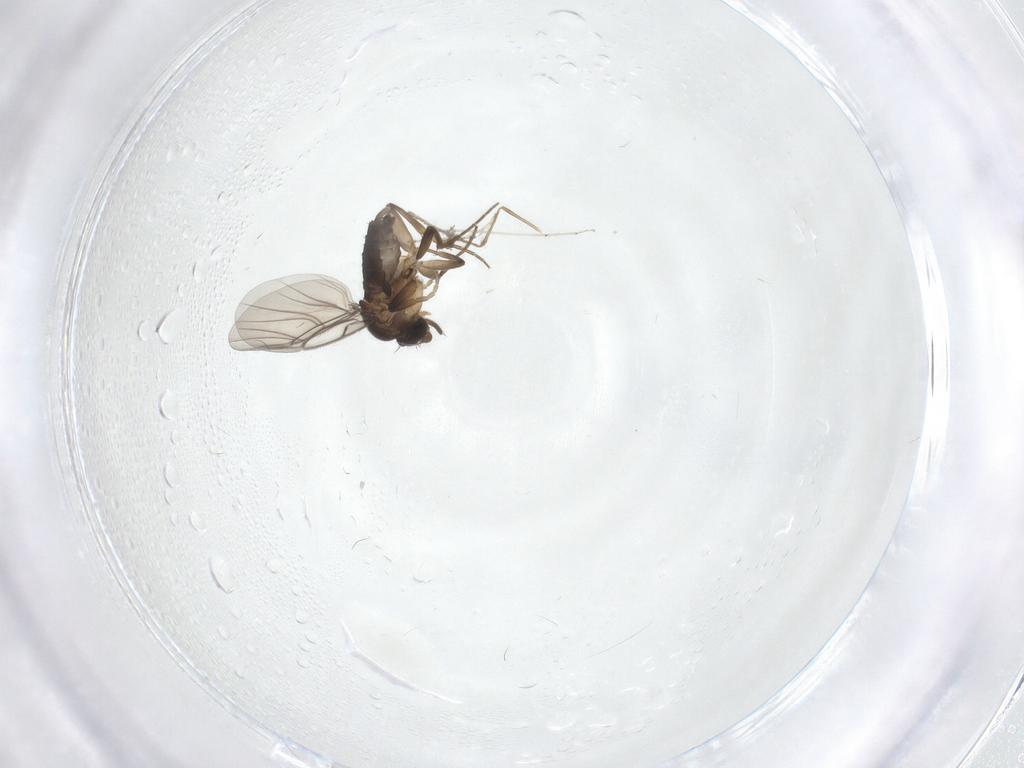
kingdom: Animalia
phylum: Arthropoda
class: Insecta
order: Diptera
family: Phoridae
